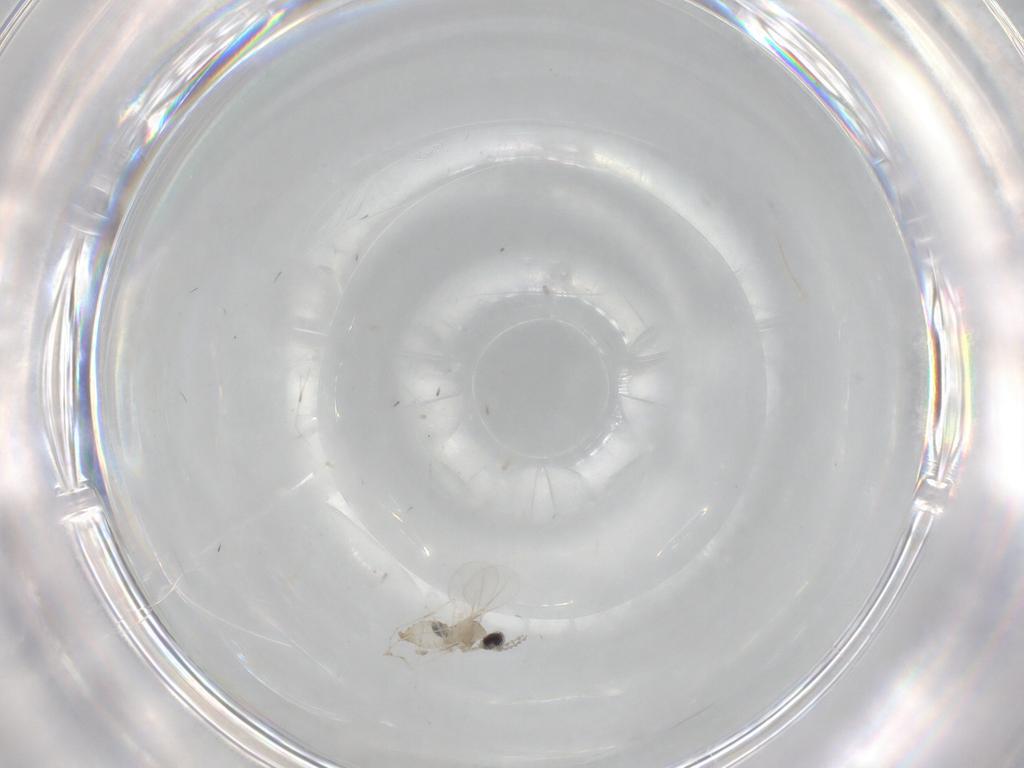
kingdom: Animalia
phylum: Arthropoda
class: Insecta
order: Diptera
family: Cecidomyiidae
